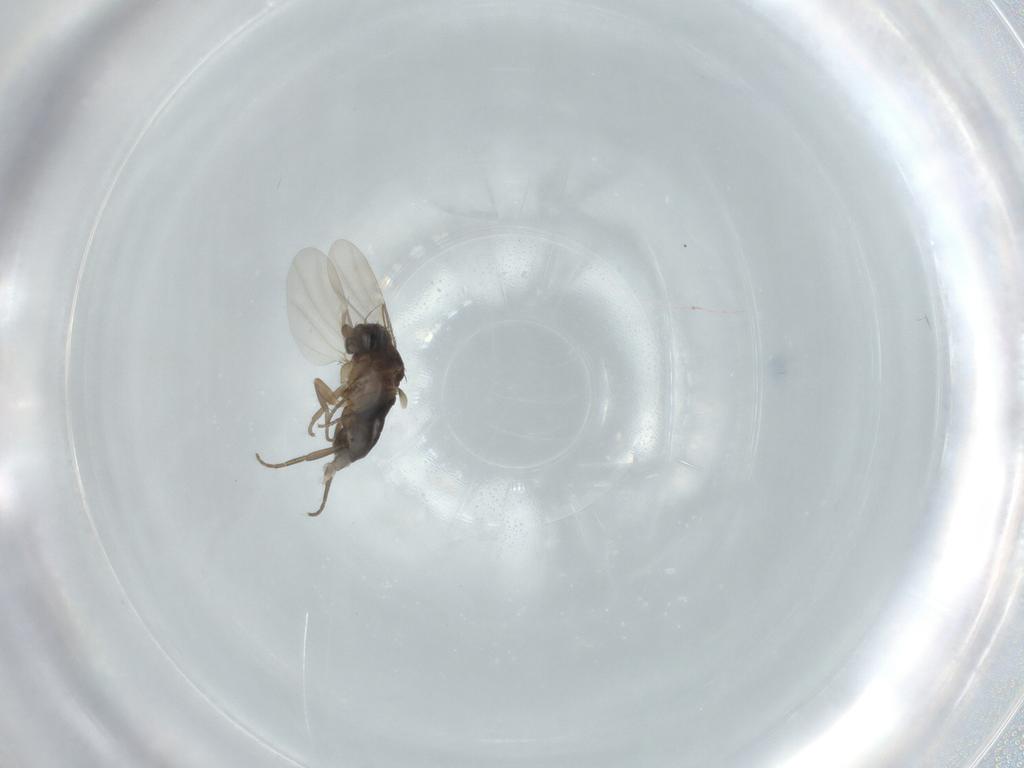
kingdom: Animalia
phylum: Arthropoda
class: Insecta
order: Diptera
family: Phoridae
